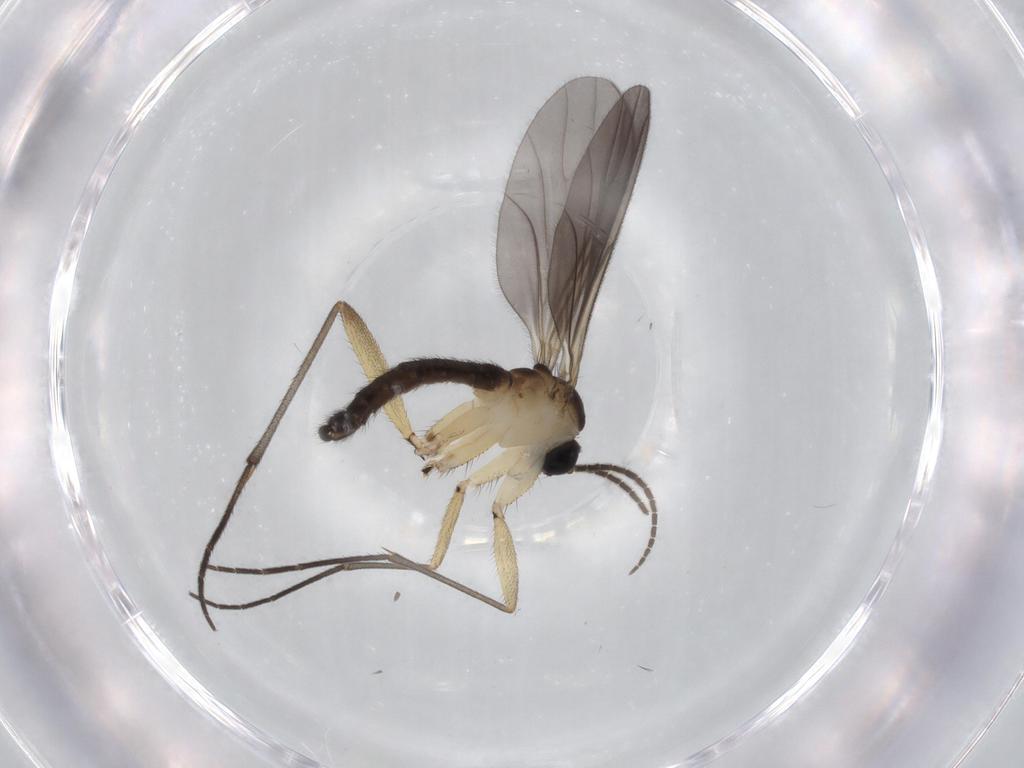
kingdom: Animalia
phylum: Arthropoda
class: Insecta
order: Diptera
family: Sciaridae
